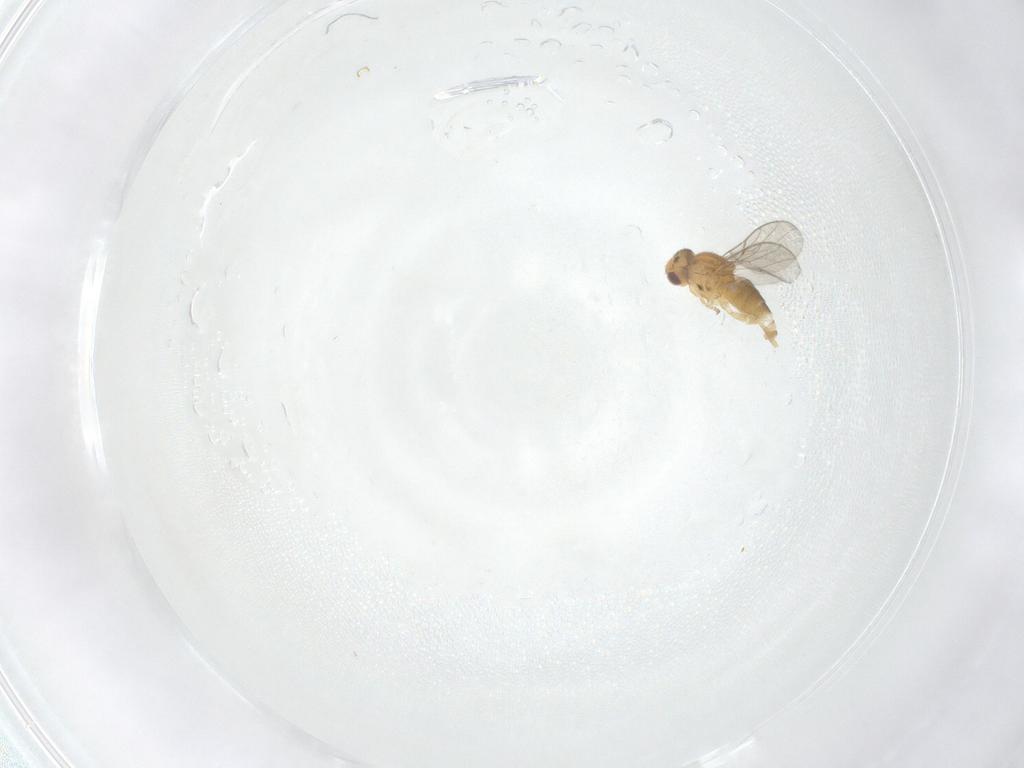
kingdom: Animalia
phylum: Arthropoda
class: Insecta
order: Diptera
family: Chloropidae
